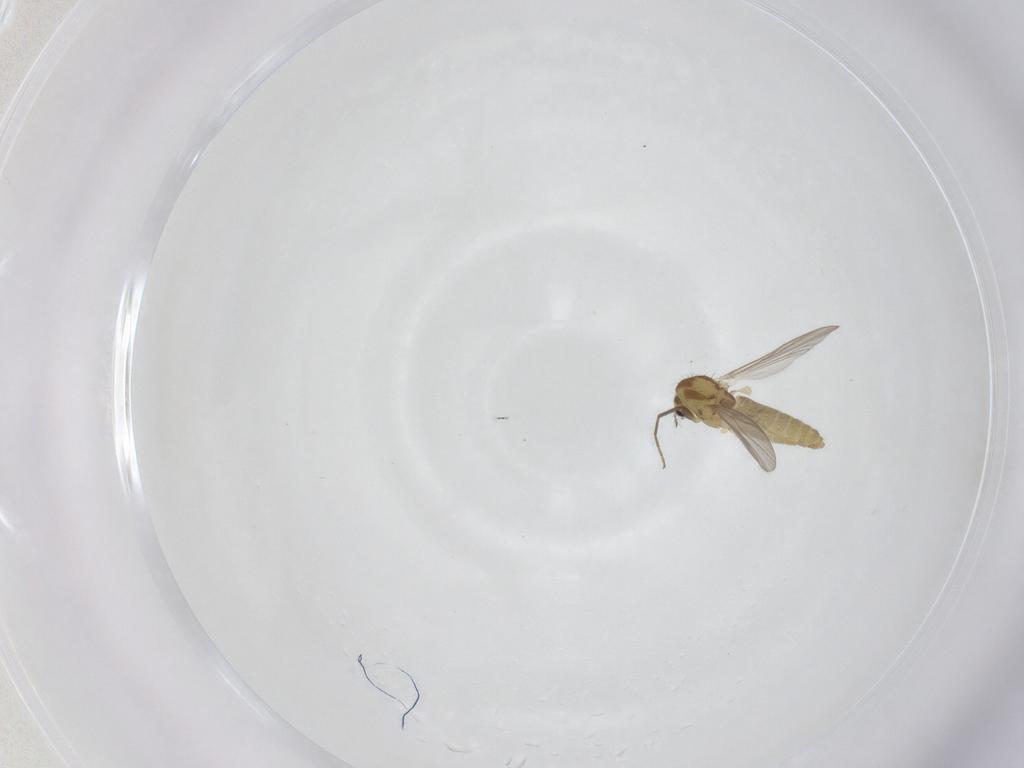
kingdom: Animalia
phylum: Arthropoda
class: Insecta
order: Diptera
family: Chironomidae
